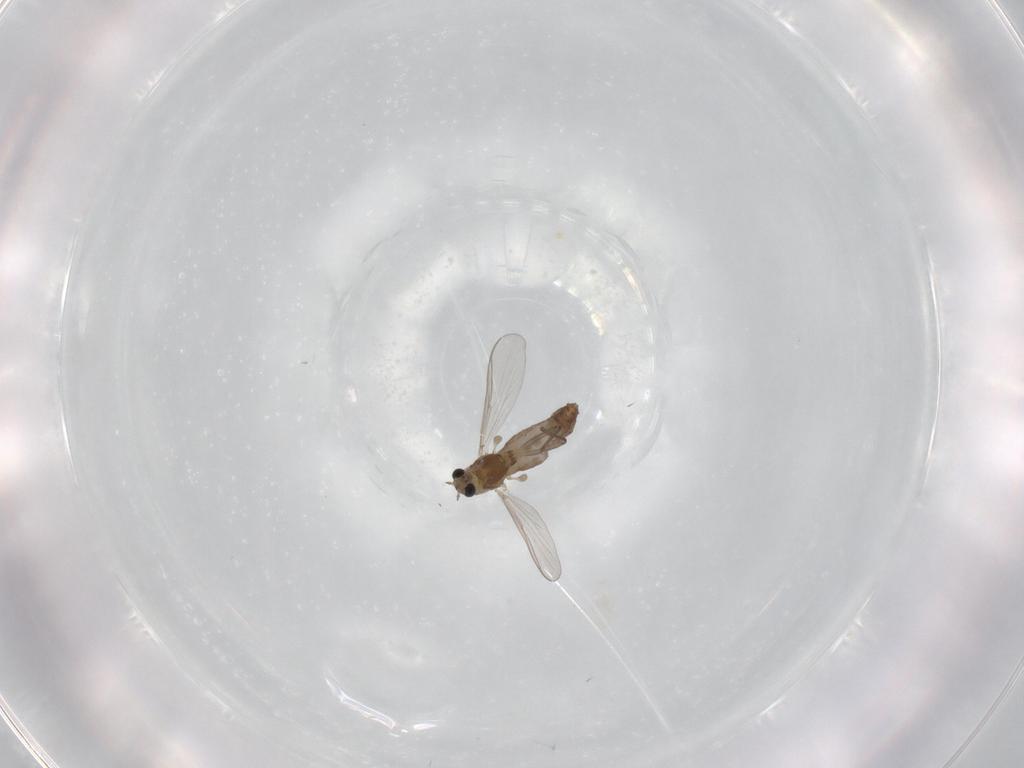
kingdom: Animalia
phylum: Arthropoda
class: Insecta
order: Diptera
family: Chironomidae
